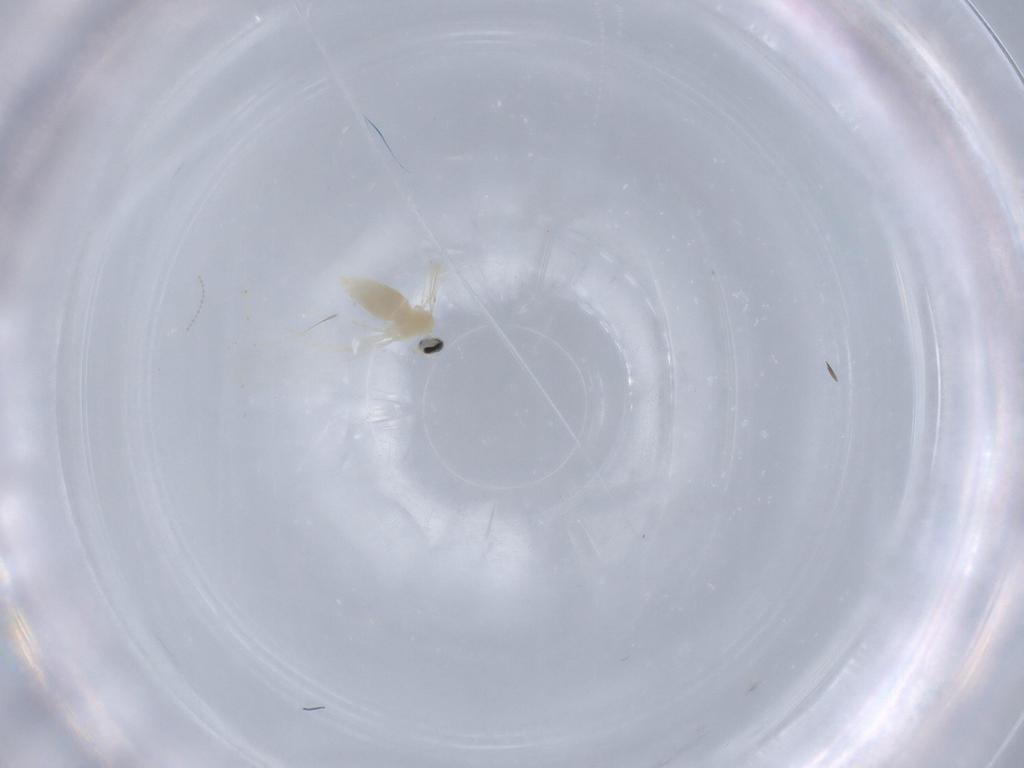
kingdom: Animalia
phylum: Arthropoda
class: Insecta
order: Diptera
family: Cecidomyiidae
